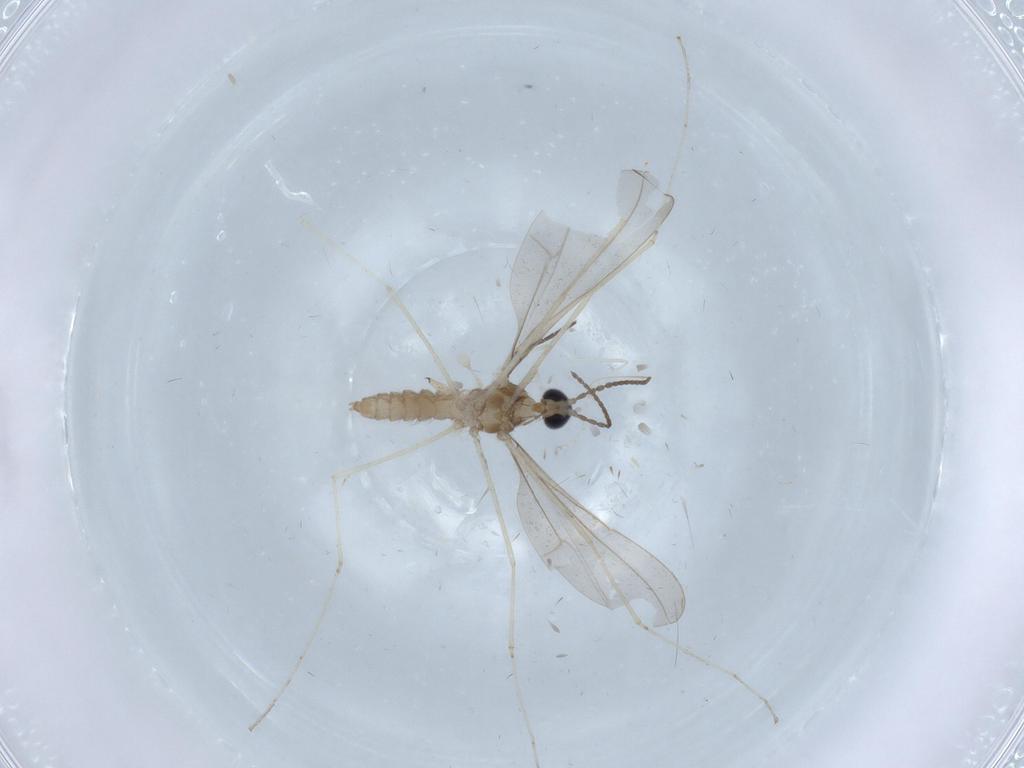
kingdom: Animalia
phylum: Arthropoda
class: Insecta
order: Diptera
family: Sciaridae
